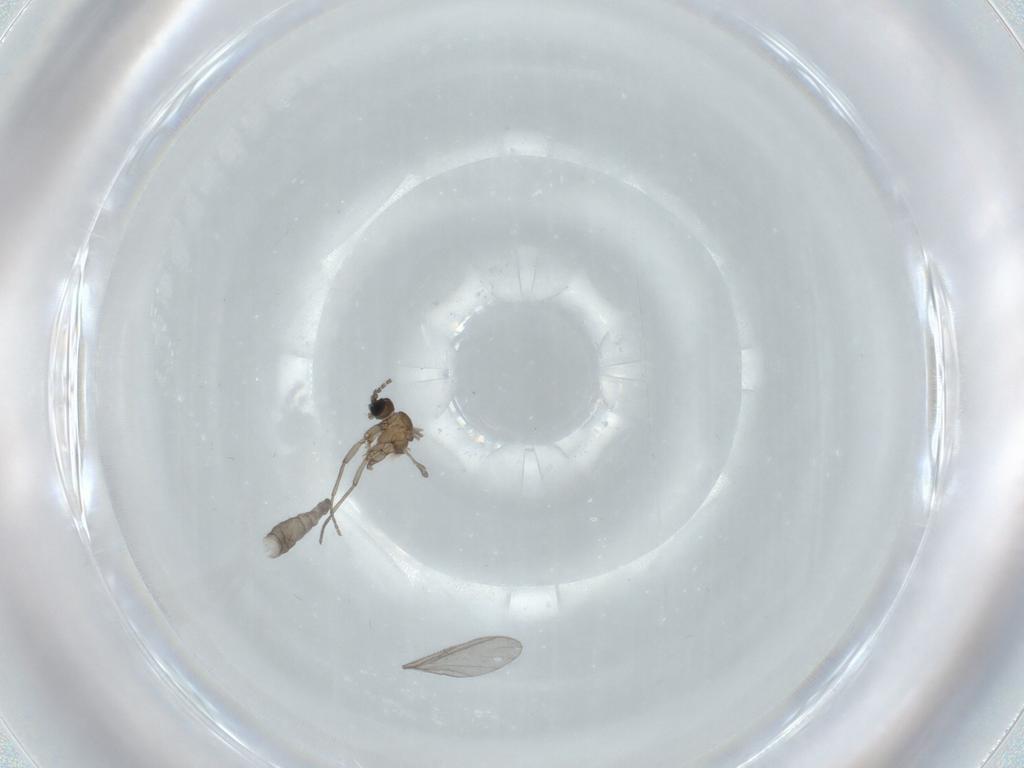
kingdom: Animalia
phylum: Arthropoda
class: Insecta
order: Diptera
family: Sciaridae
